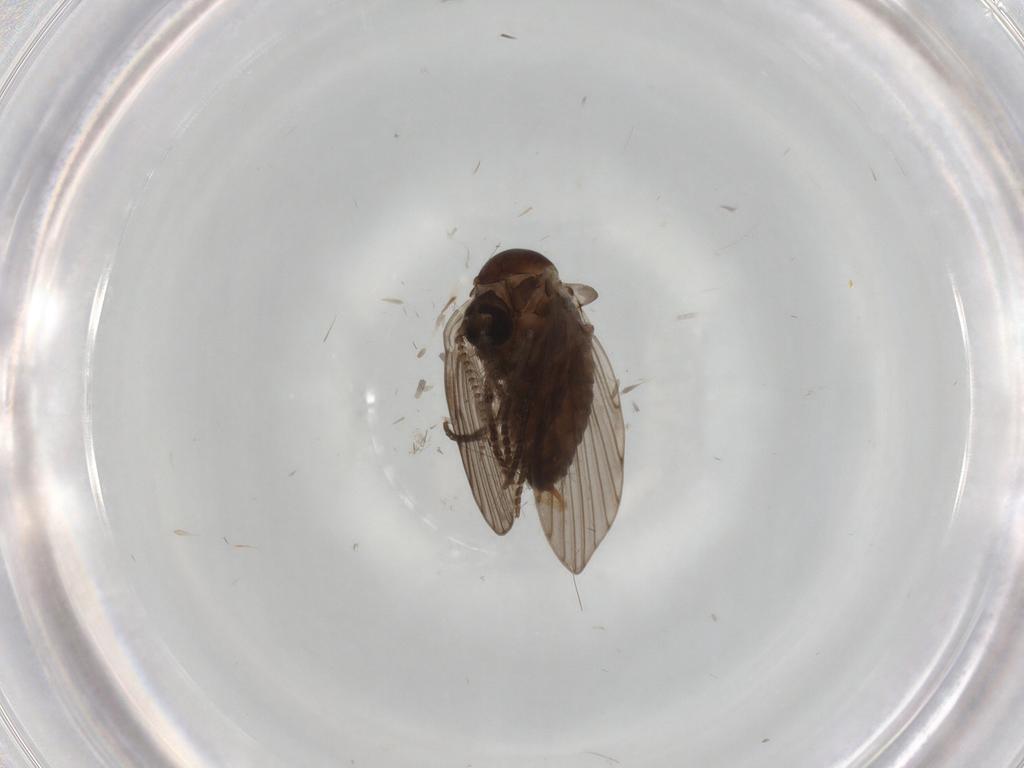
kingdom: Animalia
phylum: Arthropoda
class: Insecta
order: Diptera
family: Psychodidae
